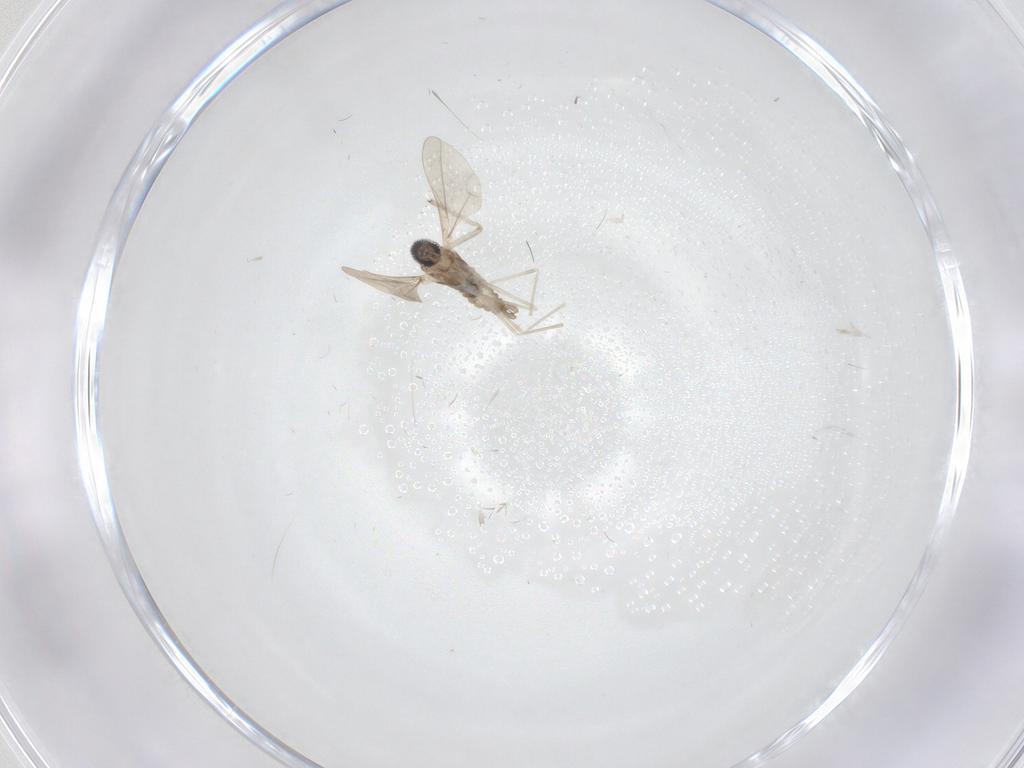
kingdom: Animalia
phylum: Arthropoda
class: Insecta
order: Diptera
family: Cecidomyiidae
